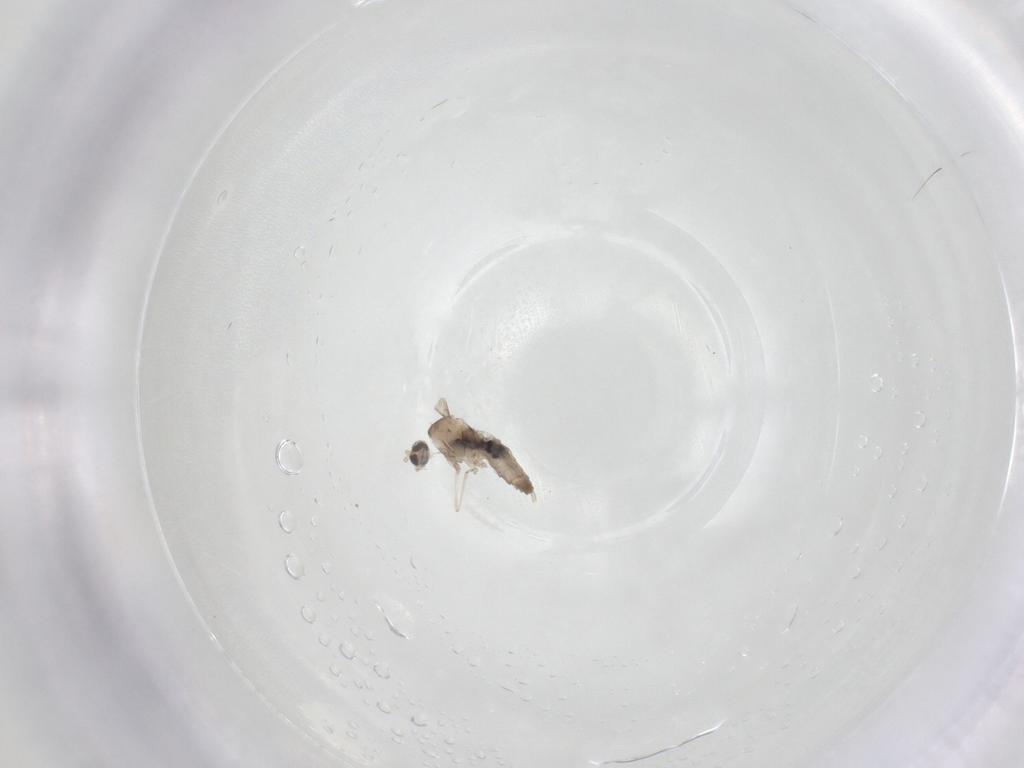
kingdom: Animalia
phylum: Arthropoda
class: Insecta
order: Diptera
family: Cecidomyiidae
